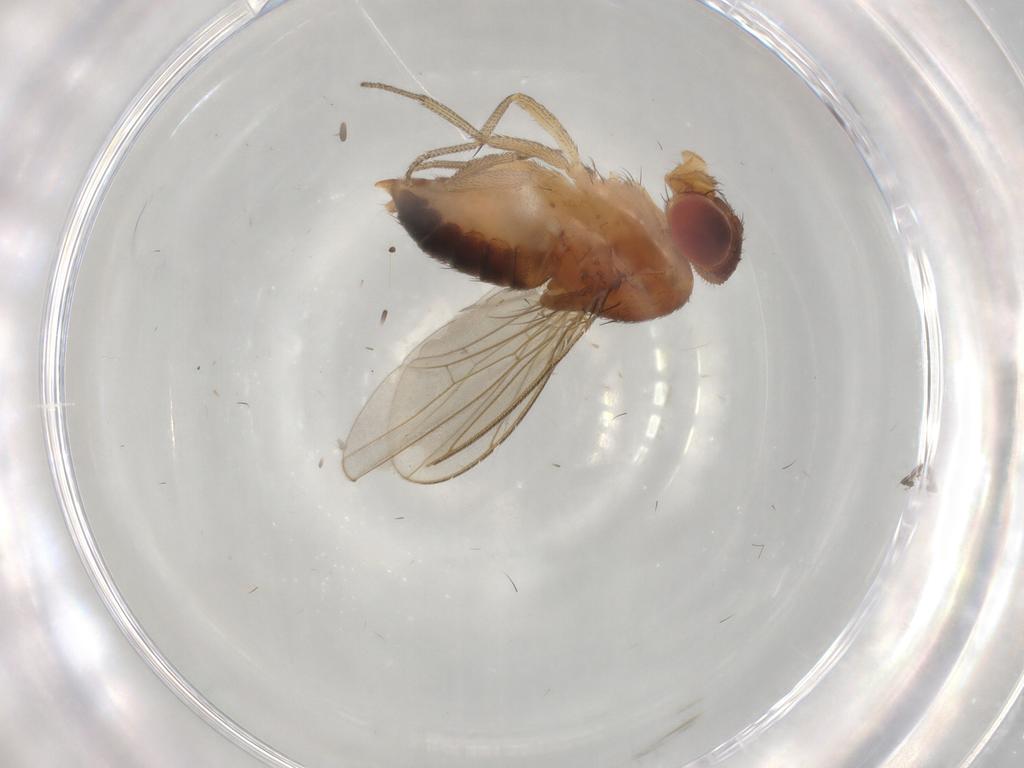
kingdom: Animalia
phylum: Arthropoda
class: Insecta
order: Diptera
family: Drosophilidae
